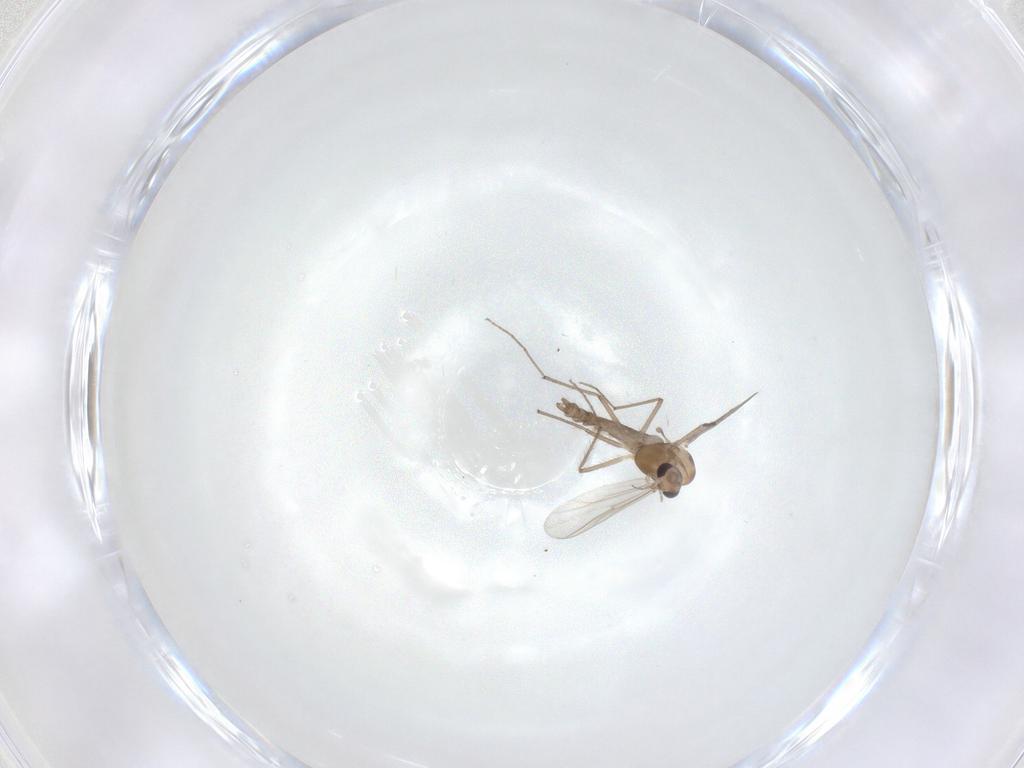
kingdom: Animalia
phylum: Arthropoda
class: Insecta
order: Diptera
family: Chironomidae
